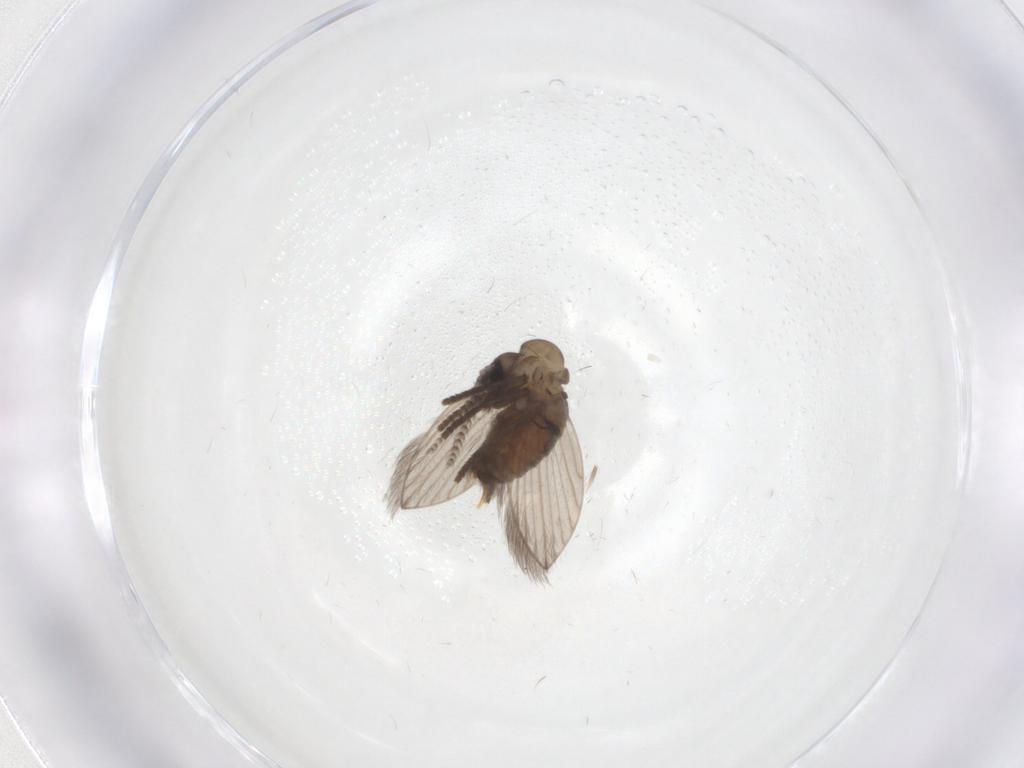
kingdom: Animalia
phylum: Arthropoda
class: Insecta
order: Diptera
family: Psychodidae
